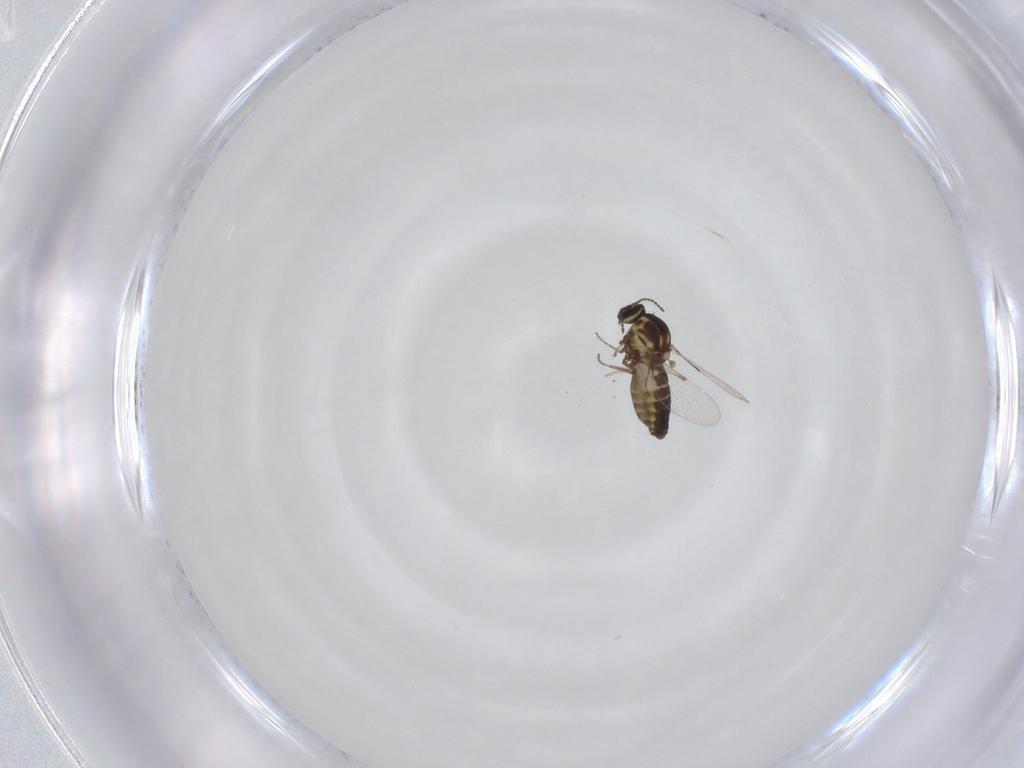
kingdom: Animalia
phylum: Arthropoda
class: Insecta
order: Diptera
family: Ceratopogonidae
